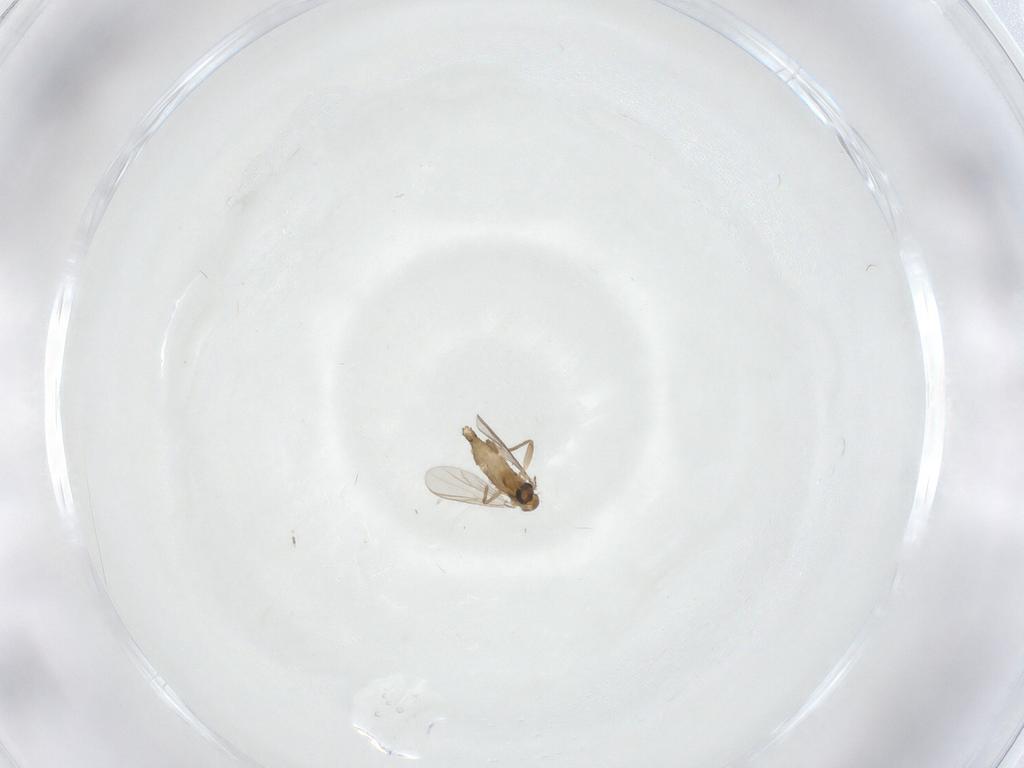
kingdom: Animalia
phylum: Arthropoda
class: Insecta
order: Diptera
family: Chironomidae
